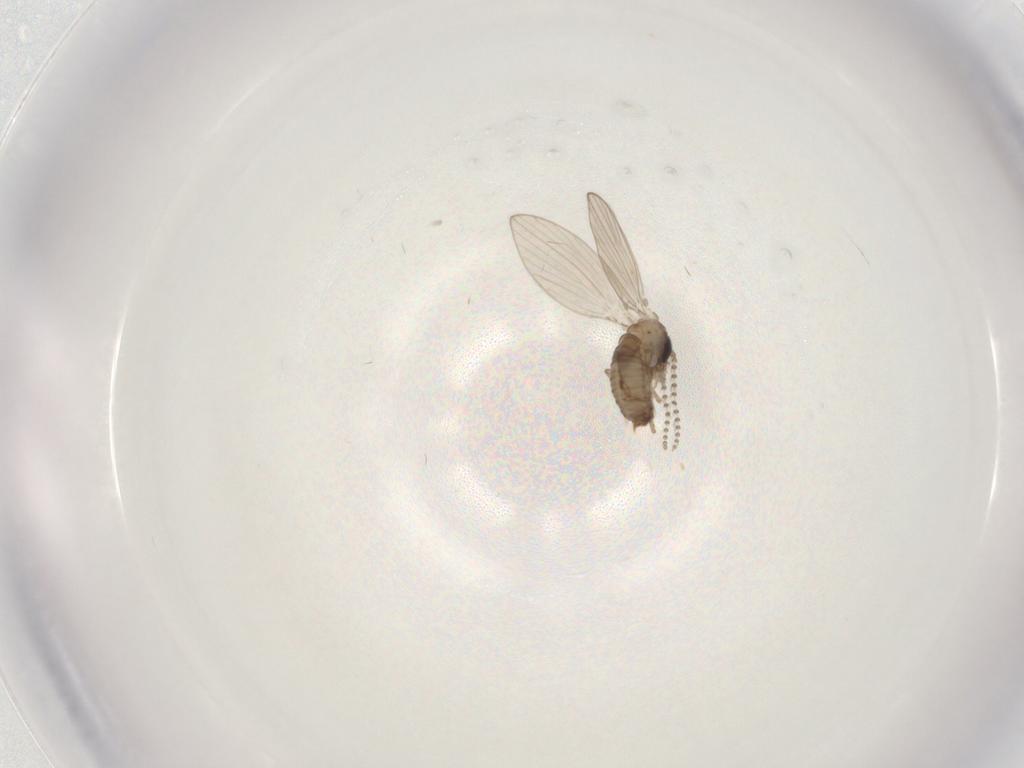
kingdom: Animalia
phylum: Arthropoda
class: Insecta
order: Diptera
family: Psychodidae
